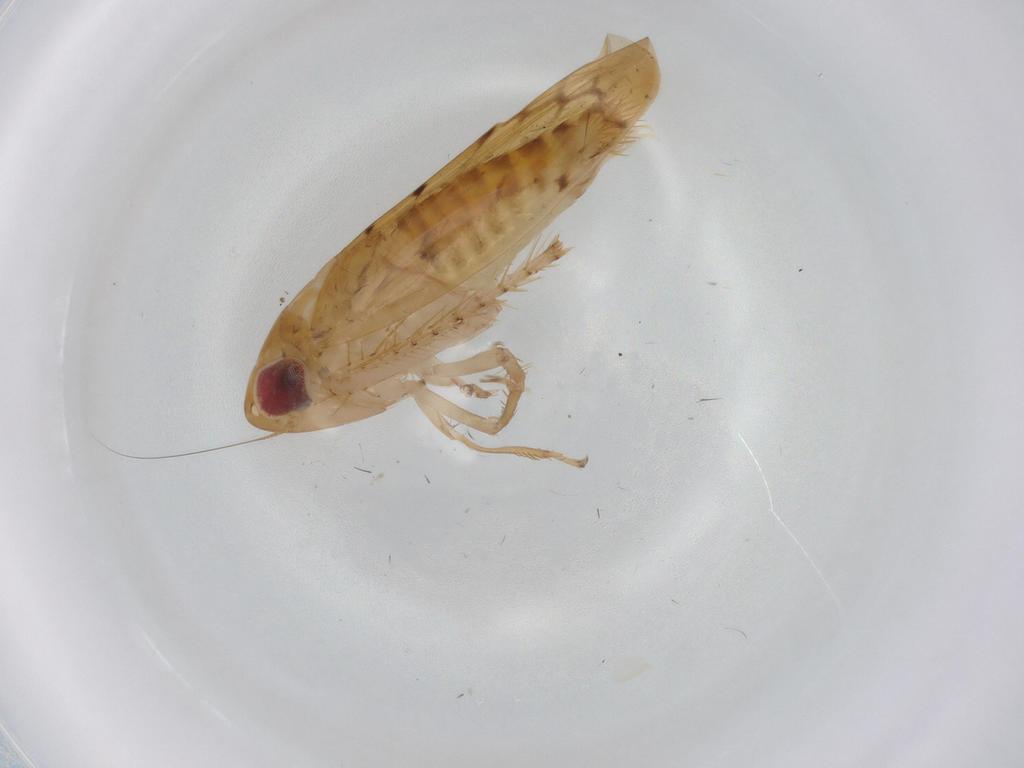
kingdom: Animalia
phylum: Arthropoda
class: Insecta
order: Hemiptera
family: Cicadellidae
